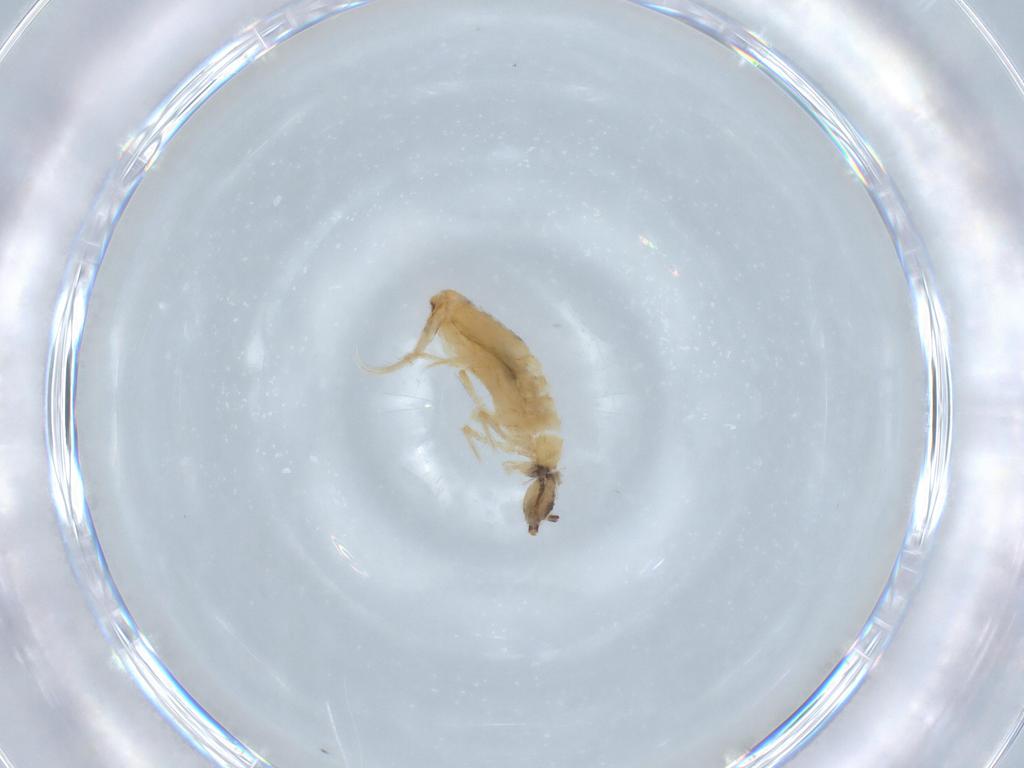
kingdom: Animalia
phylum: Arthropoda
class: Collembola
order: Entomobryomorpha
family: Entomobryidae
